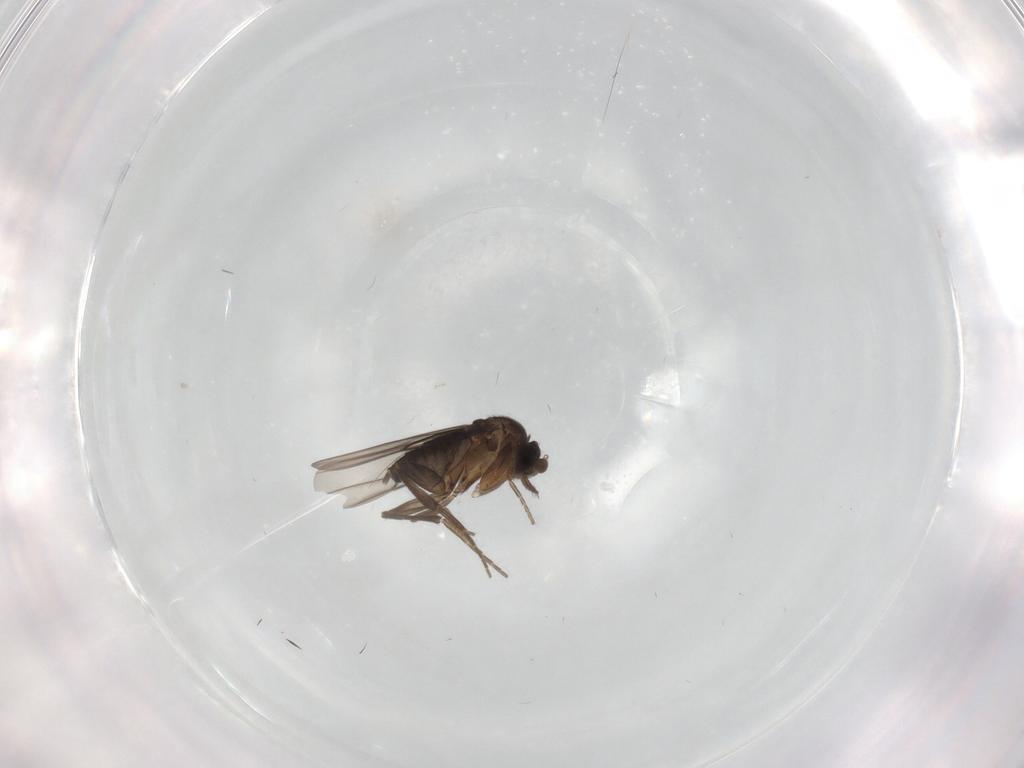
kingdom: Animalia
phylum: Arthropoda
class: Insecta
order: Diptera
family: Phoridae
